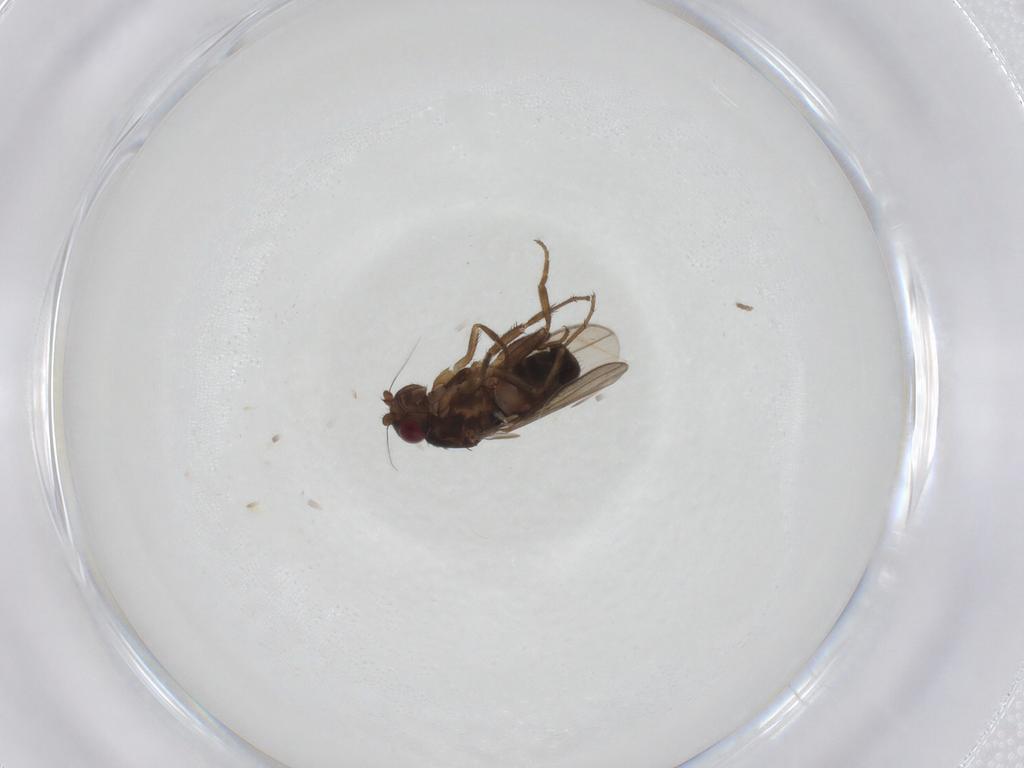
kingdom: Animalia
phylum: Arthropoda
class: Insecta
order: Diptera
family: Sphaeroceridae
